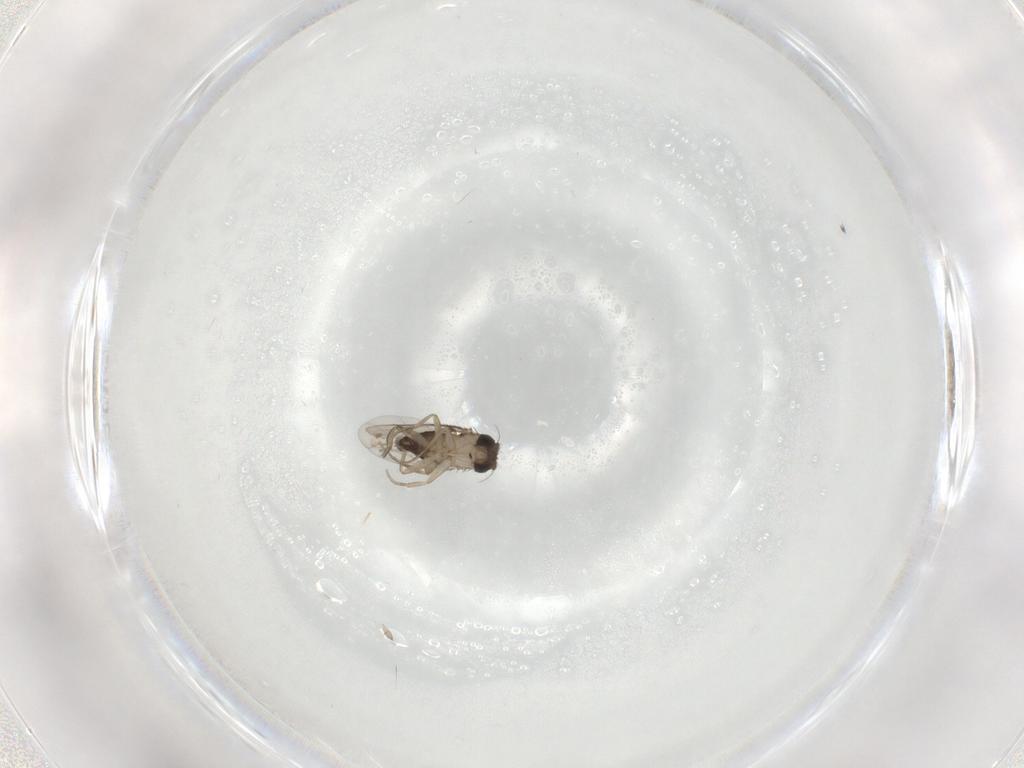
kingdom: Animalia
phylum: Arthropoda
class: Insecta
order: Diptera
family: Phoridae
